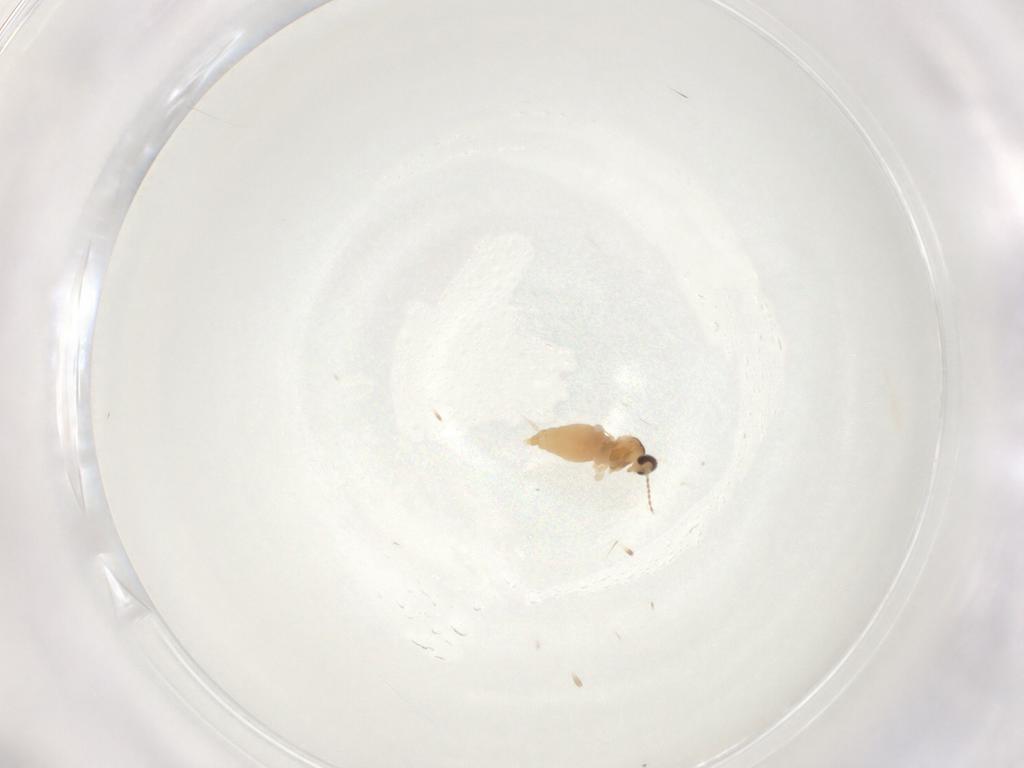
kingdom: Animalia
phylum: Arthropoda
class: Insecta
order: Diptera
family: Cecidomyiidae
